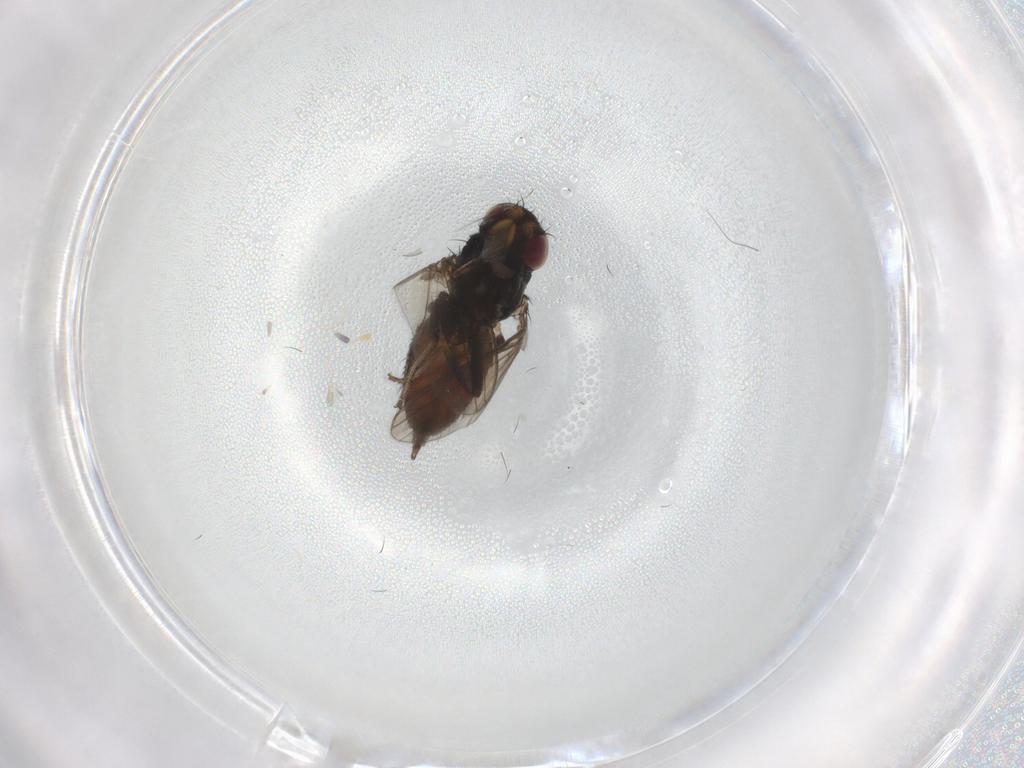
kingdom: Animalia
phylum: Arthropoda
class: Insecta
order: Diptera
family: Milichiidae
